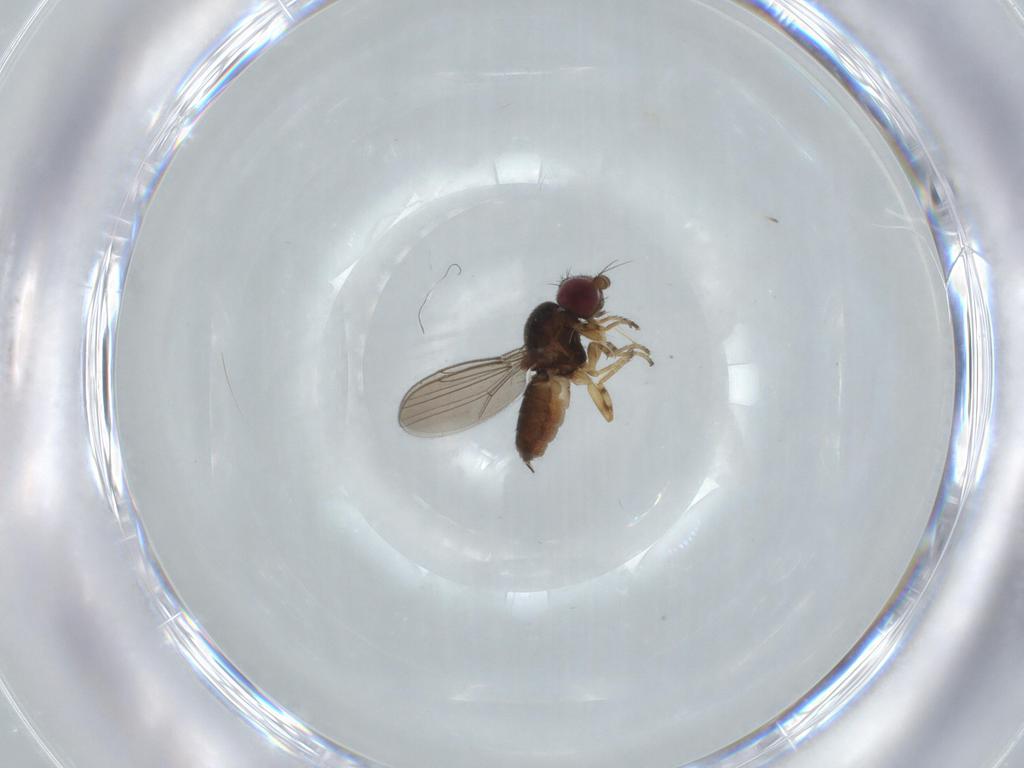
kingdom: Animalia
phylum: Arthropoda
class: Insecta
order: Diptera
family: Chloropidae
